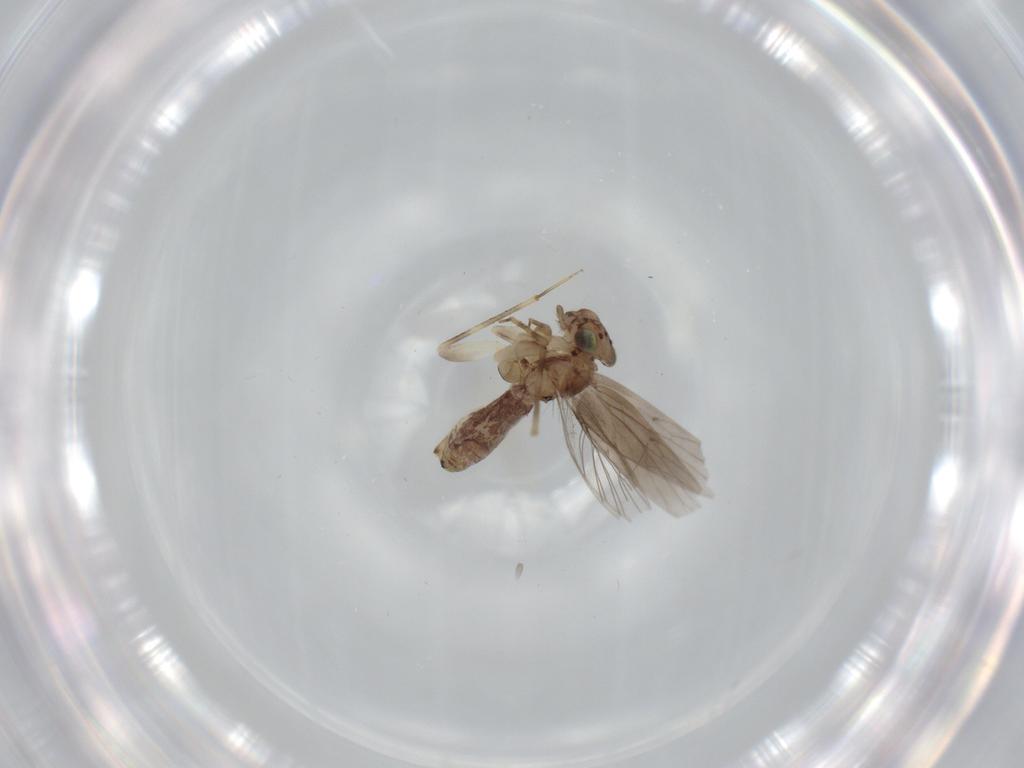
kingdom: Animalia
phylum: Arthropoda
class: Insecta
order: Psocodea
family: Lepidopsocidae
